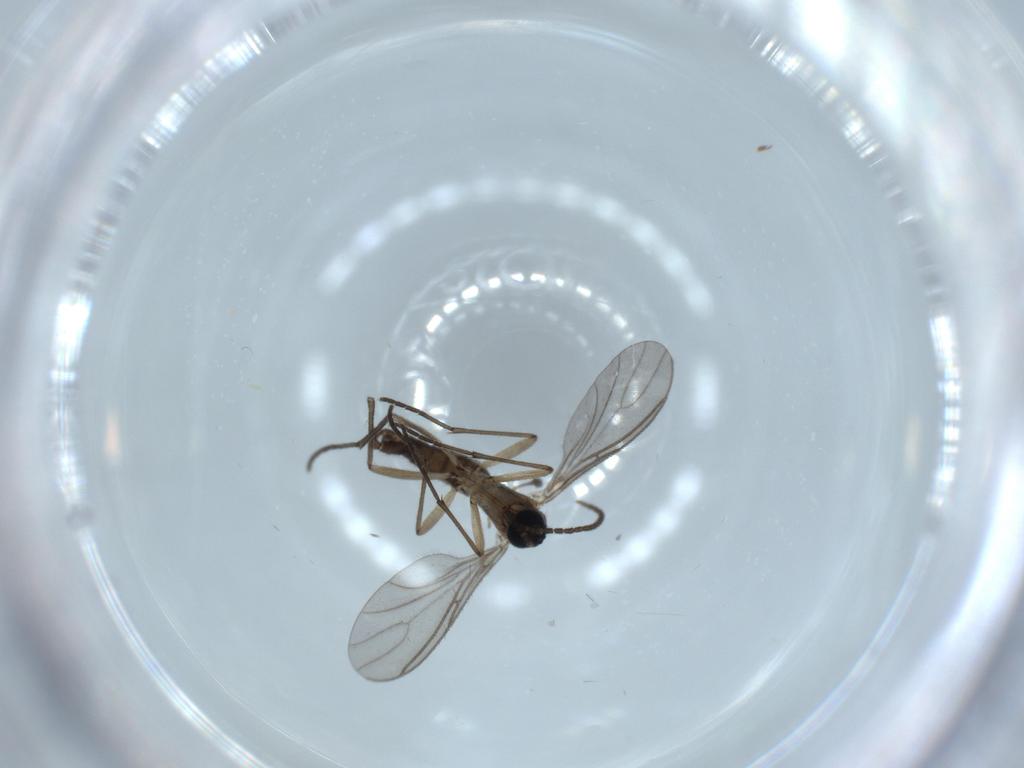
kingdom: Animalia
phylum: Arthropoda
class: Insecta
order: Diptera
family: Sciaridae
